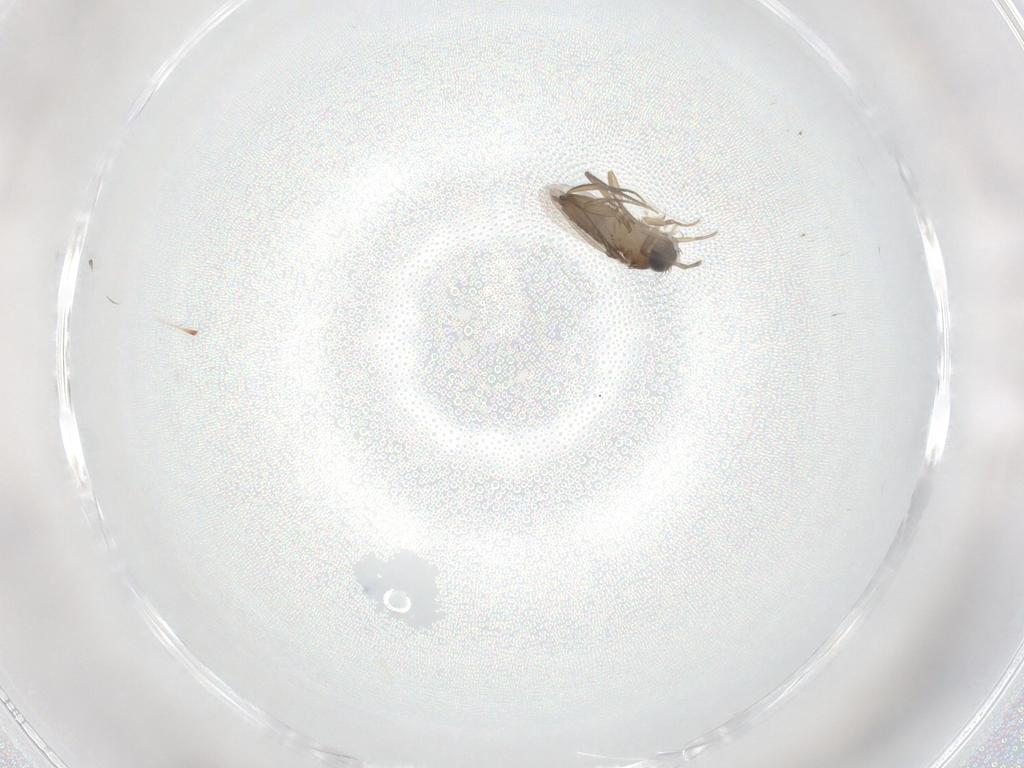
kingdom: Animalia
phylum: Arthropoda
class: Insecta
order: Diptera
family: Sciaridae
